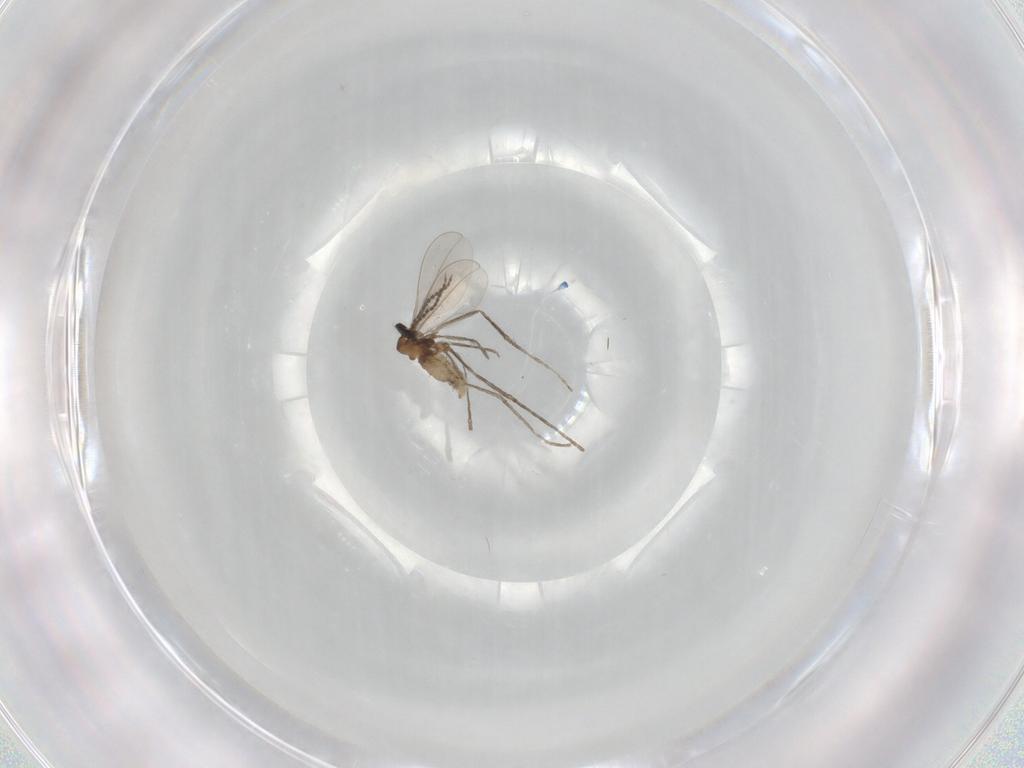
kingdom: Animalia
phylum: Arthropoda
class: Insecta
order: Diptera
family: Cecidomyiidae
